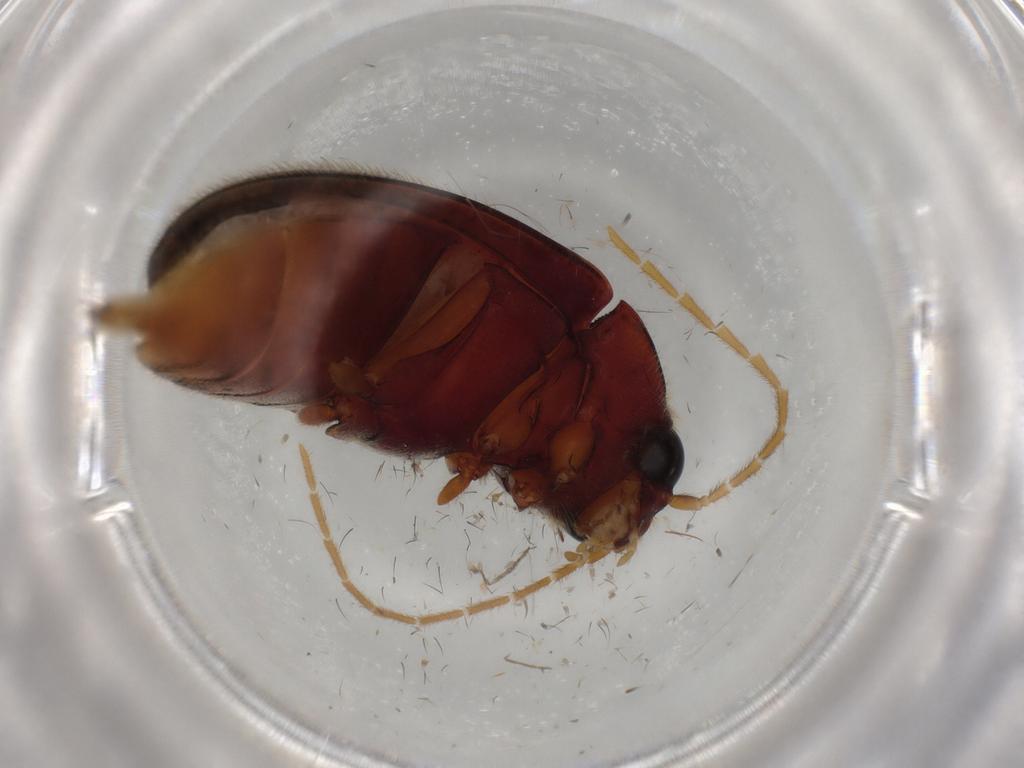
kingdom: Animalia
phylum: Arthropoda
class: Insecta
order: Coleoptera
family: Ptilodactylidae
